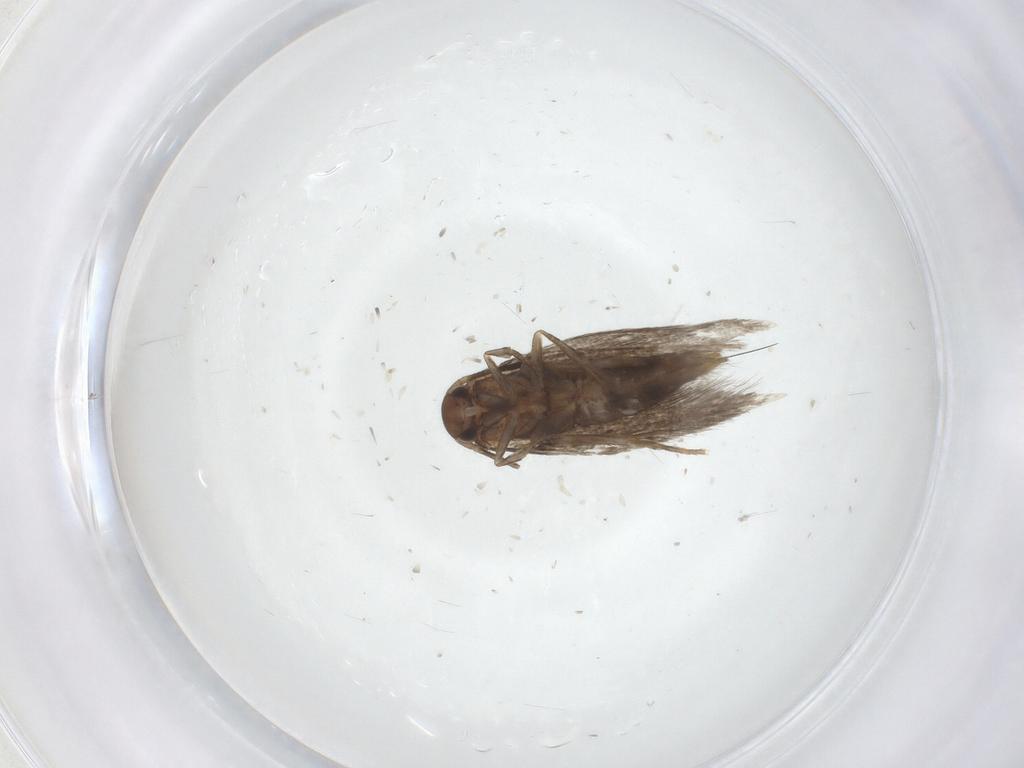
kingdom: Animalia
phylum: Arthropoda
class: Insecta
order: Lepidoptera
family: Elachistidae
